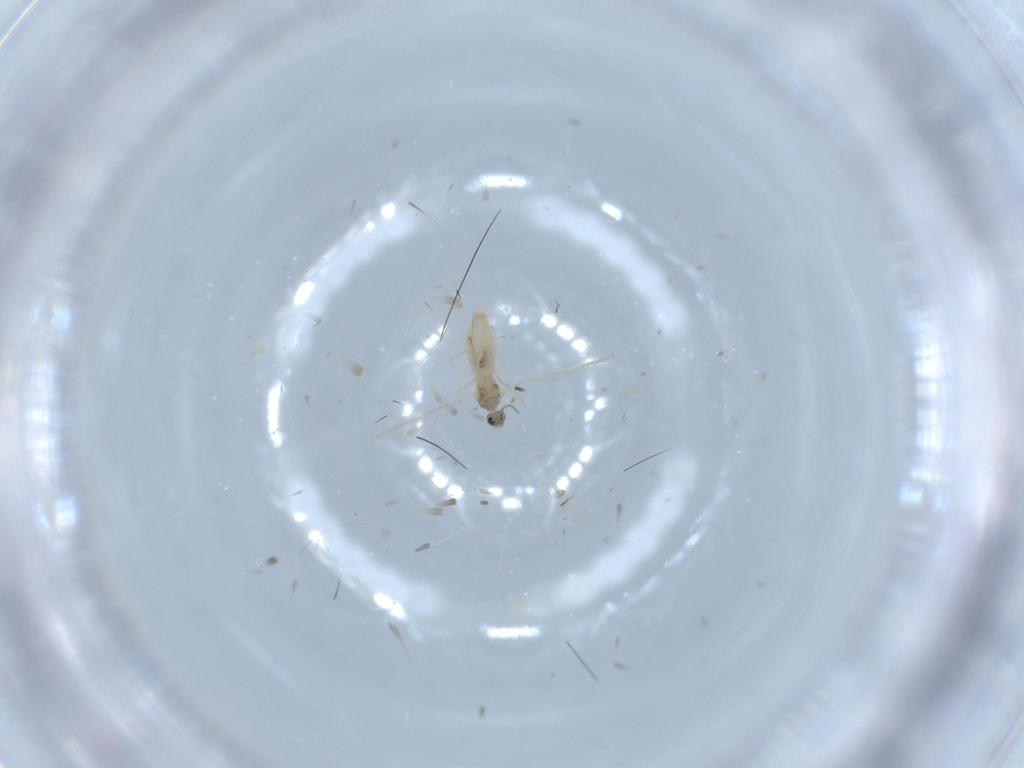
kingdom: Animalia
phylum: Arthropoda
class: Insecta
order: Diptera
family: Cecidomyiidae
